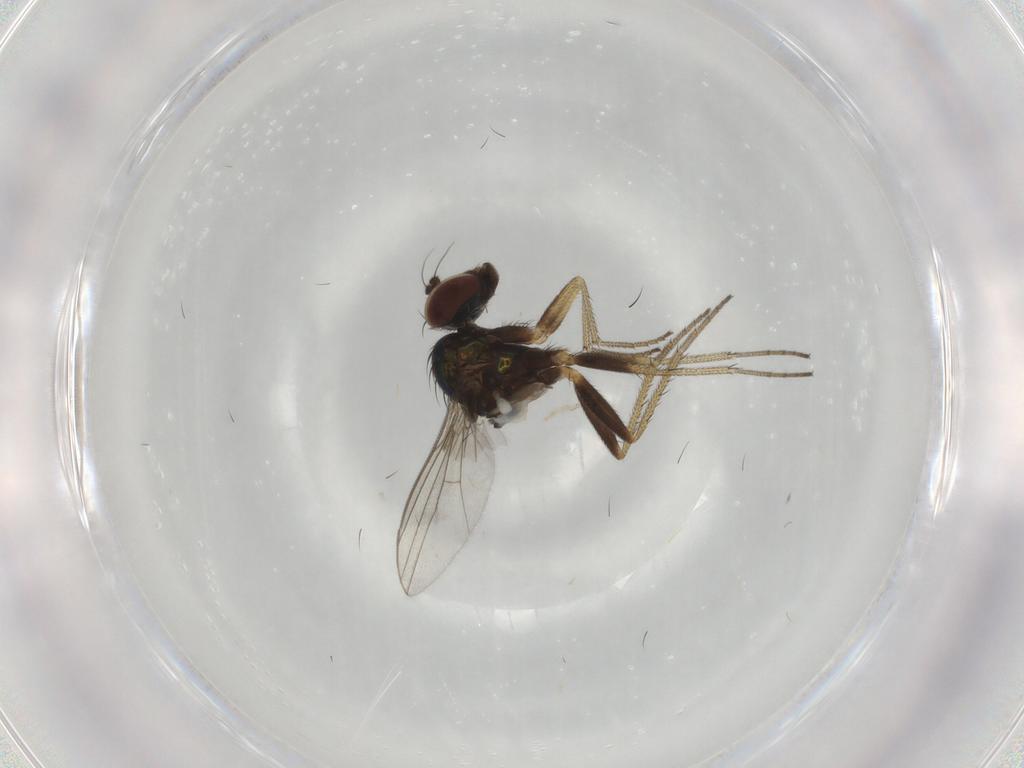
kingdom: Animalia
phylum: Arthropoda
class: Insecta
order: Diptera
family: Dolichopodidae
